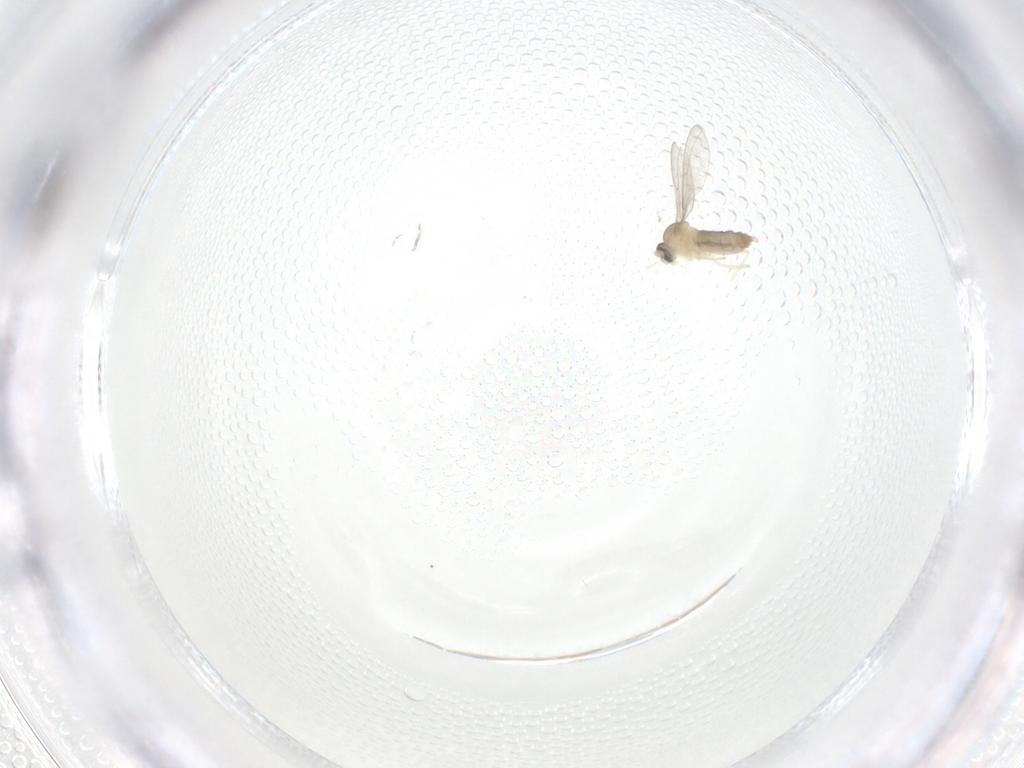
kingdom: Animalia
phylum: Arthropoda
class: Insecta
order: Diptera
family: Cecidomyiidae
